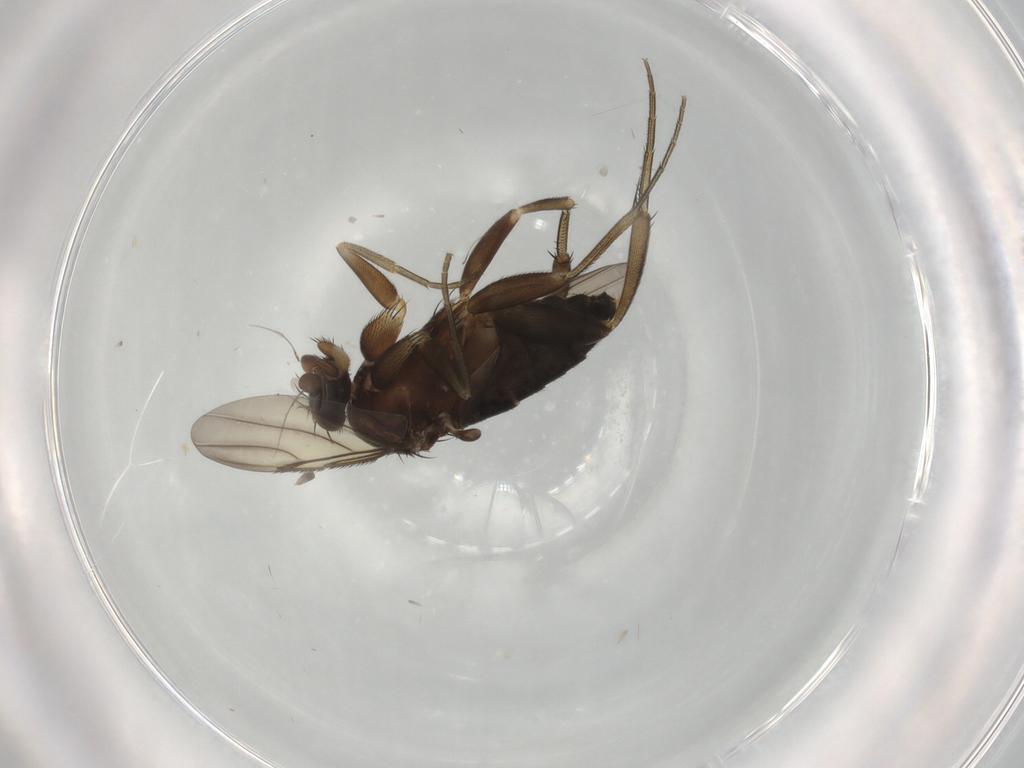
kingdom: Animalia
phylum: Arthropoda
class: Insecta
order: Diptera
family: Phoridae
